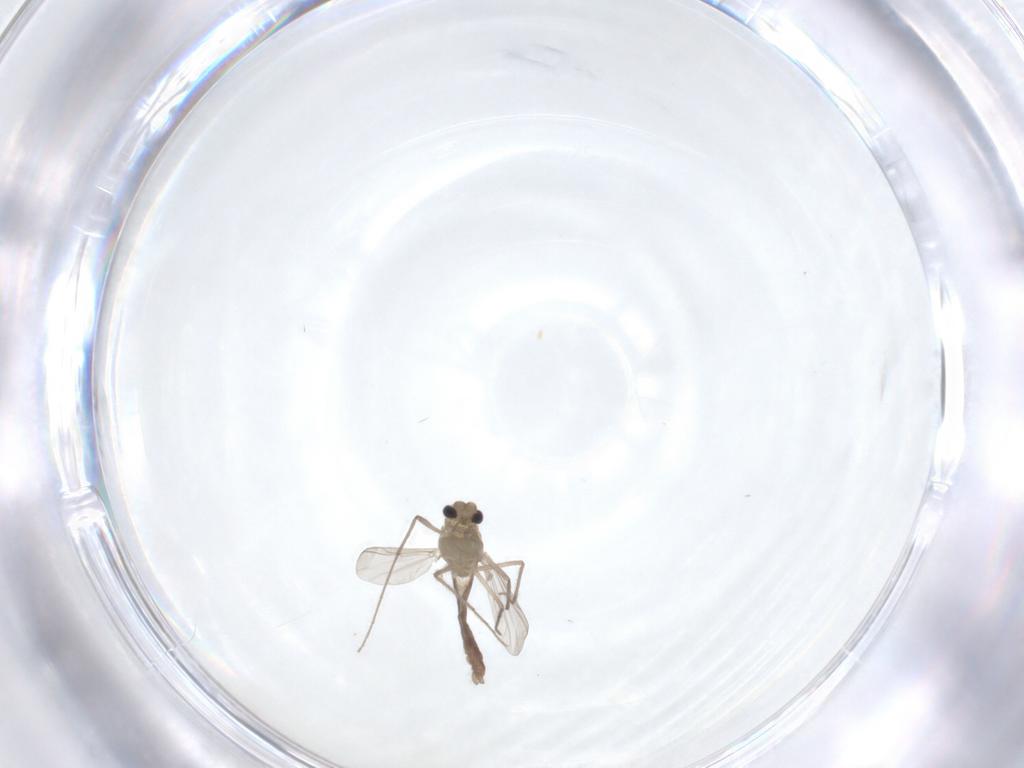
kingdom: Animalia
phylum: Arthropoda
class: Insecta
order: Diptera
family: Chironomidae
